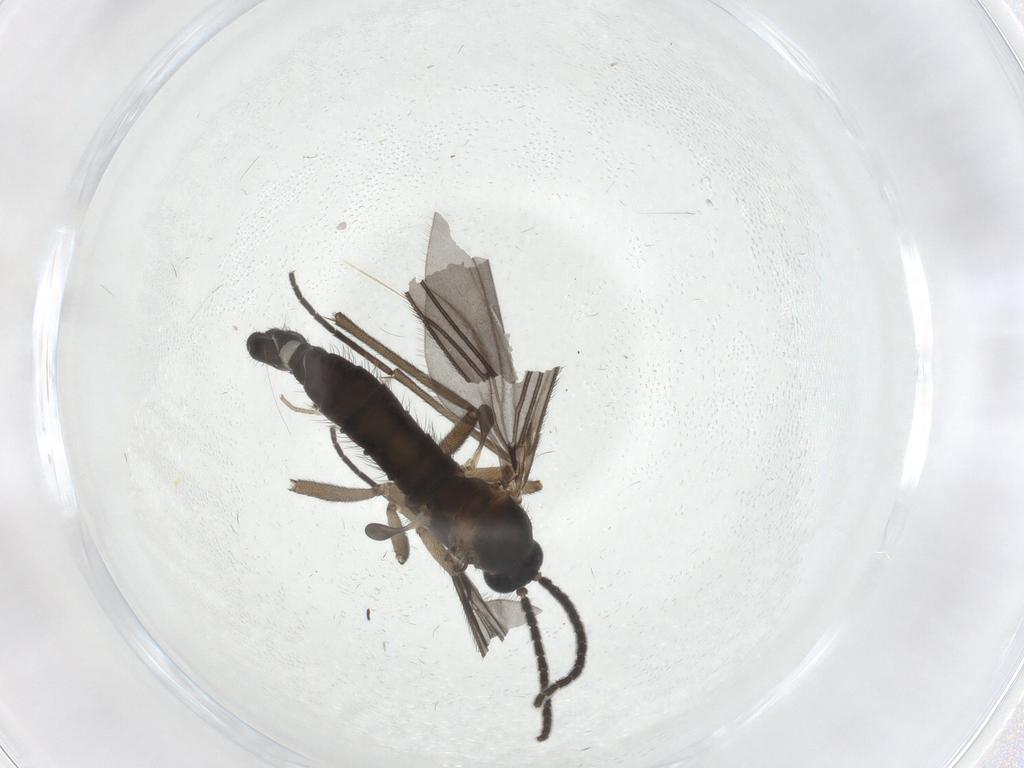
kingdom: Animalia
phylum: Arthropoda
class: Insecta
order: Diptera
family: Sciaridae
